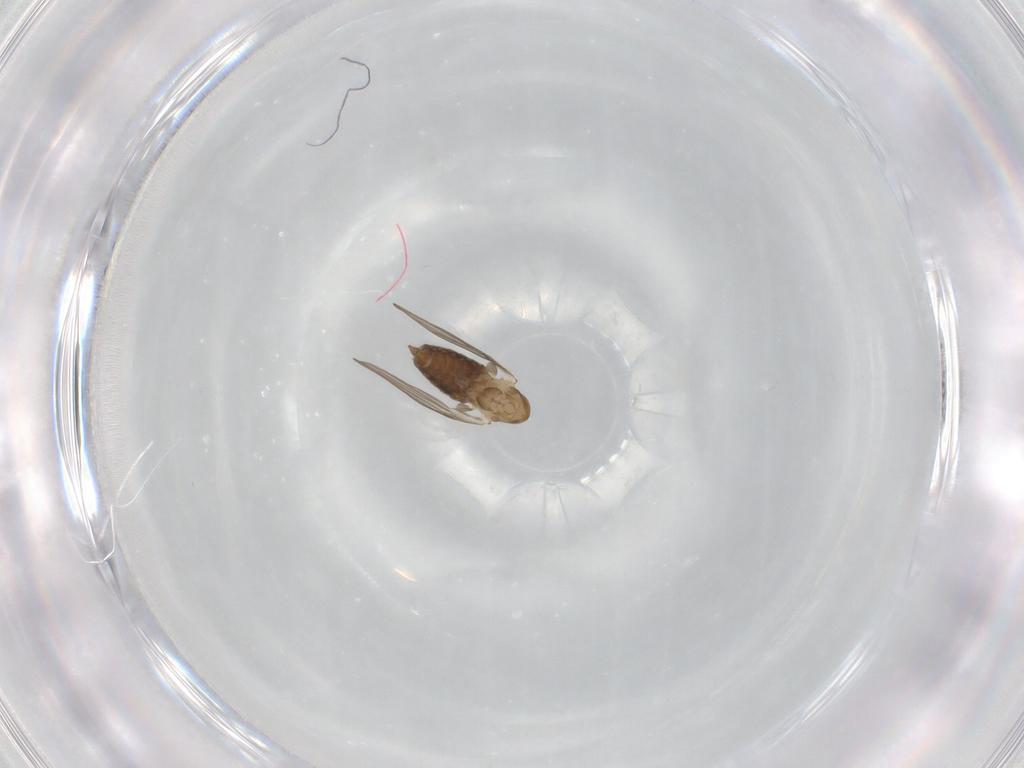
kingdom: Animalia
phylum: Arthropoda
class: Insecta
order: Diptera
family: Psychodidae
